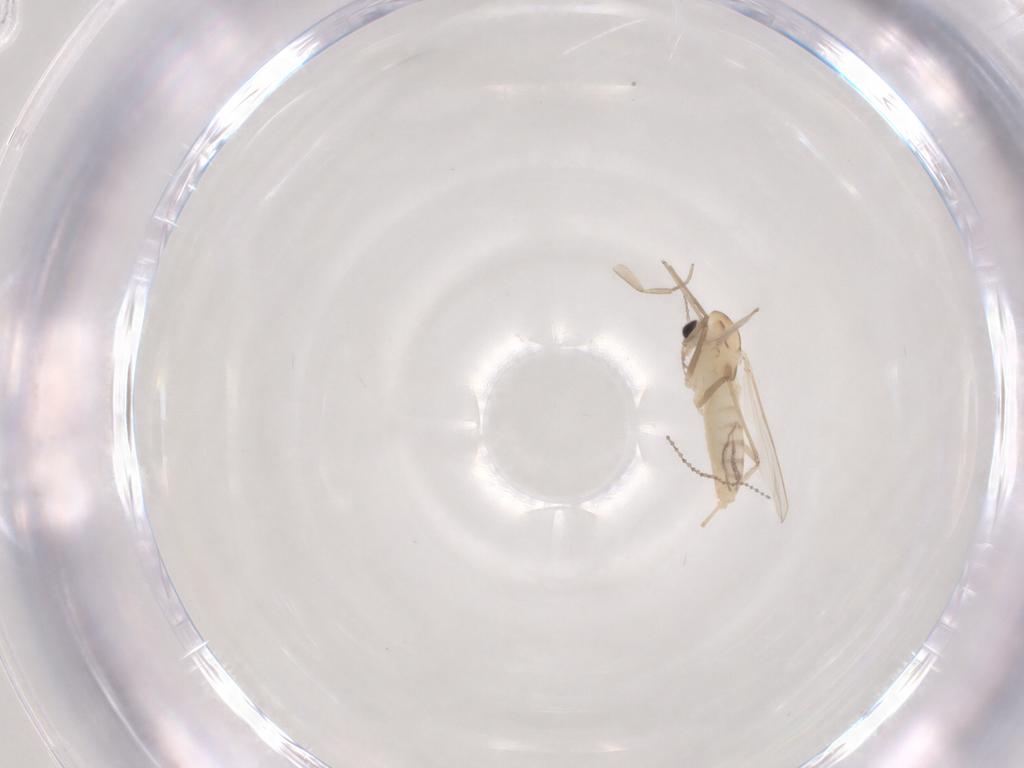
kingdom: Animalia
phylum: Arthropoda
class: Insecta
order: Diptera
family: Chironomidae
